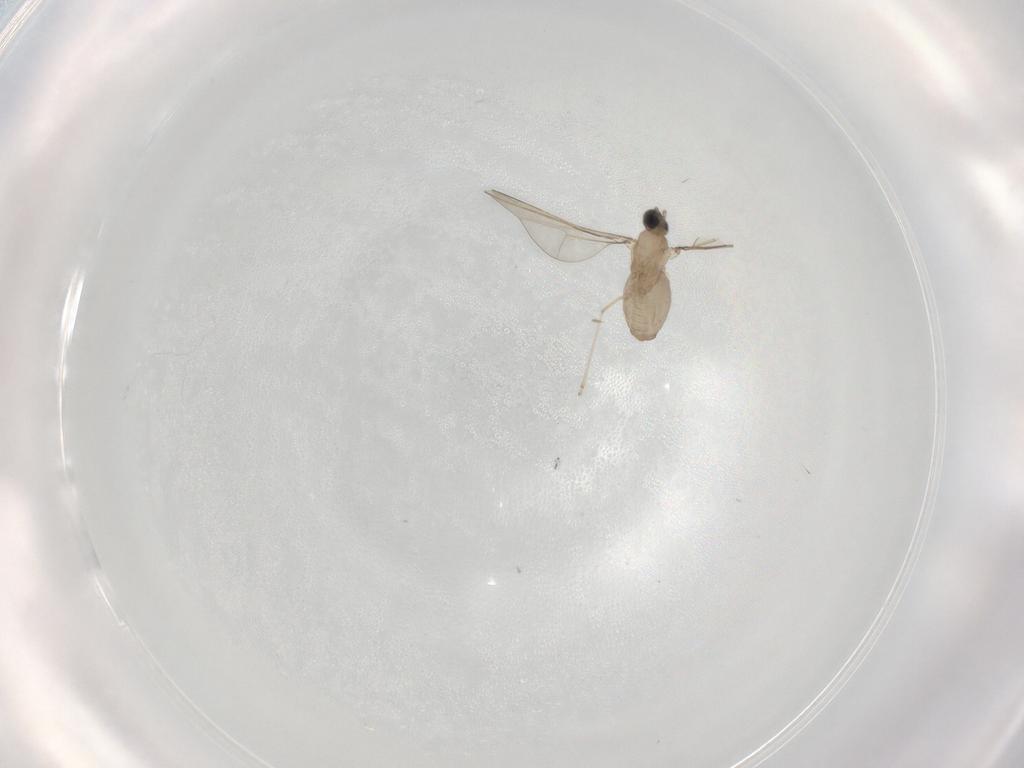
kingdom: Animalia
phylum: Arthropoda
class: Insecta
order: Diptera
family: Cecidomyiidae
